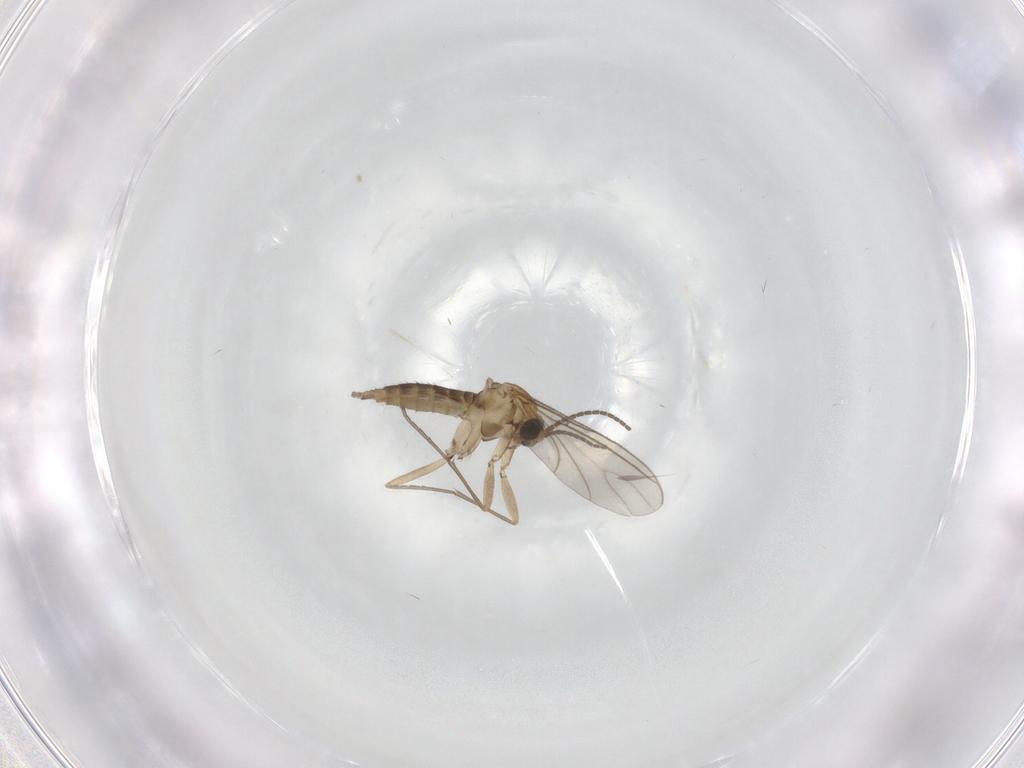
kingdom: Animalia
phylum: Arthropoda
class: Insecta
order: Diptera
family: Ceratopogonidae
